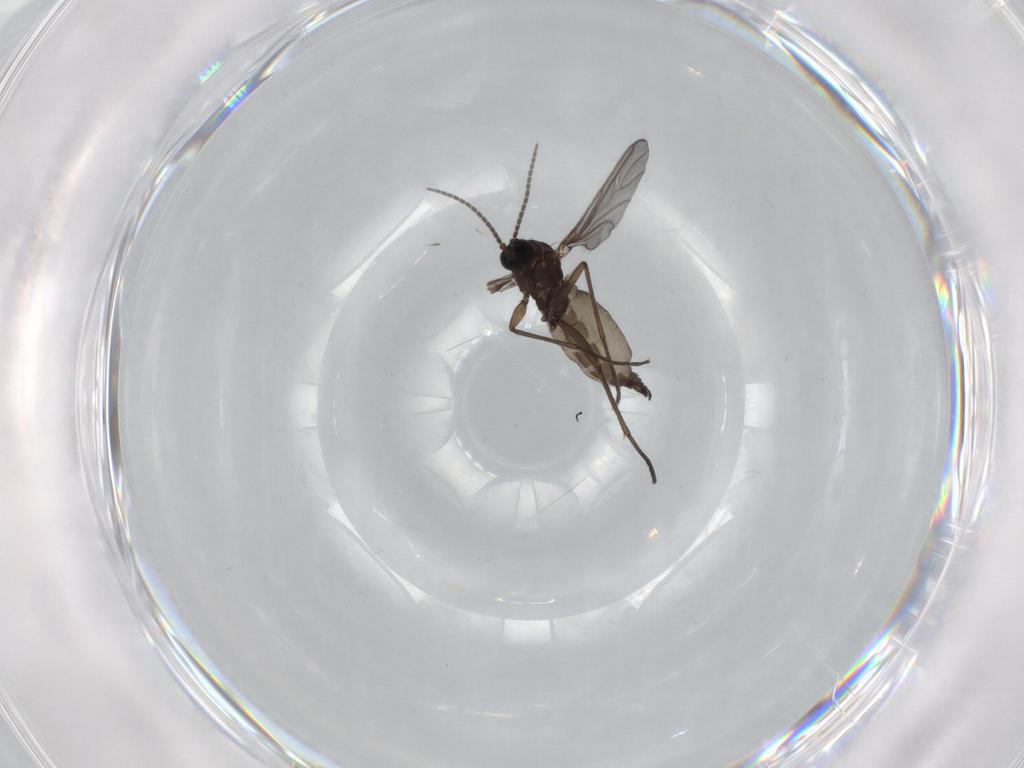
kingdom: Animalia
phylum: Arthropoda
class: Insecta
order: Diptera
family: Sciaridae
